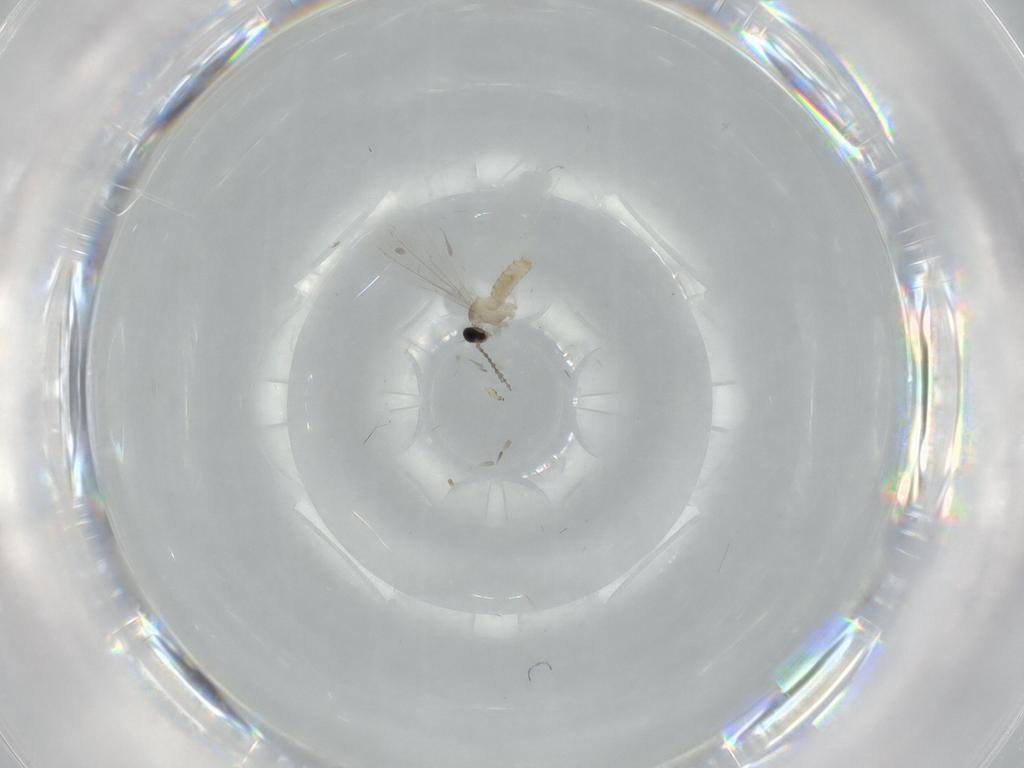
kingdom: Animalia
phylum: Arthropoda
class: Insecta
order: Diptera
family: Cecidomyiidae
